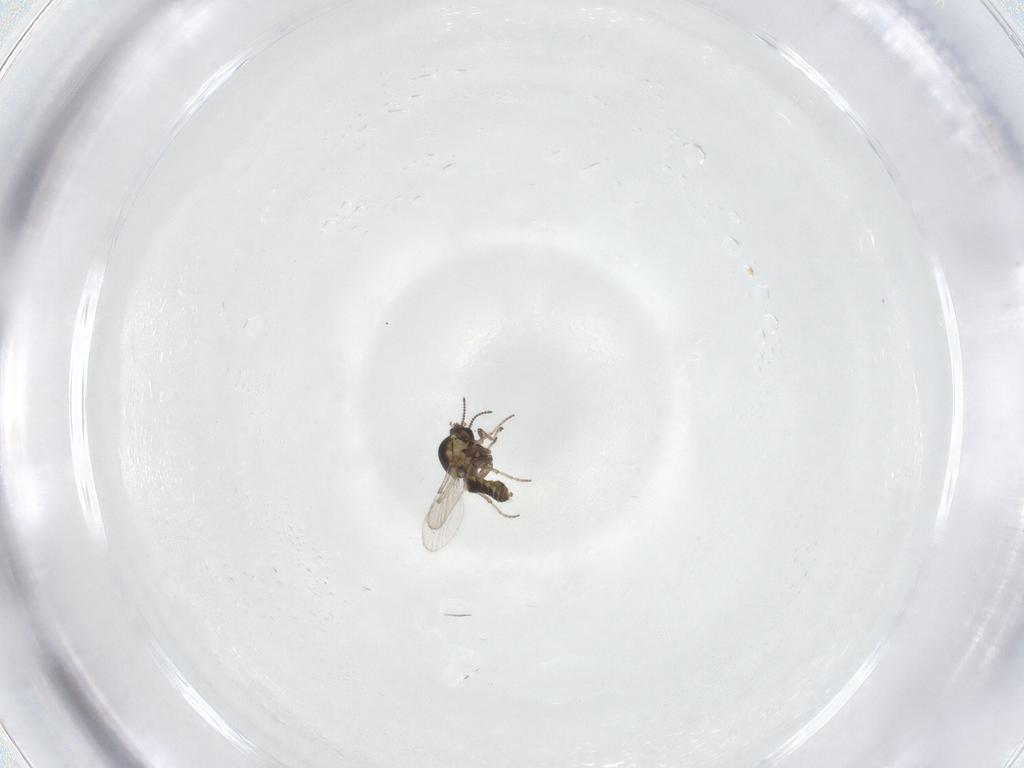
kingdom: Animalia
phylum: Arthropoda
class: Insecta
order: Diptera
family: Ceratopogonidae
